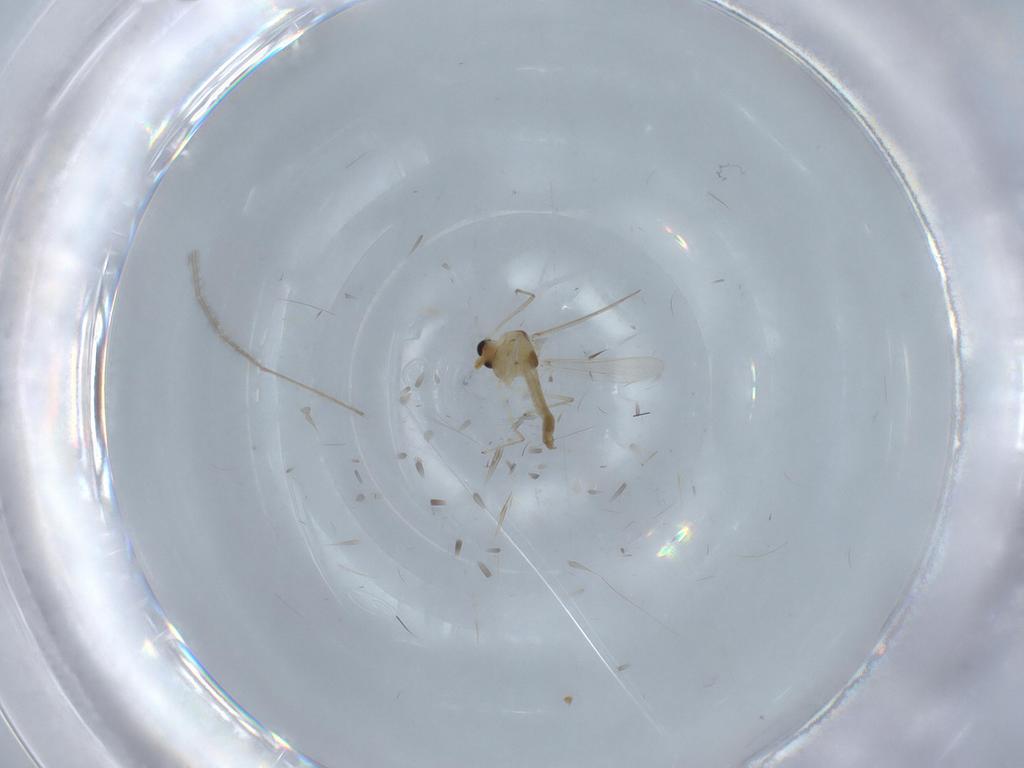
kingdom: Animalia
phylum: Arthropoda
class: Insecta
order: Diptera
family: Chironomidae
